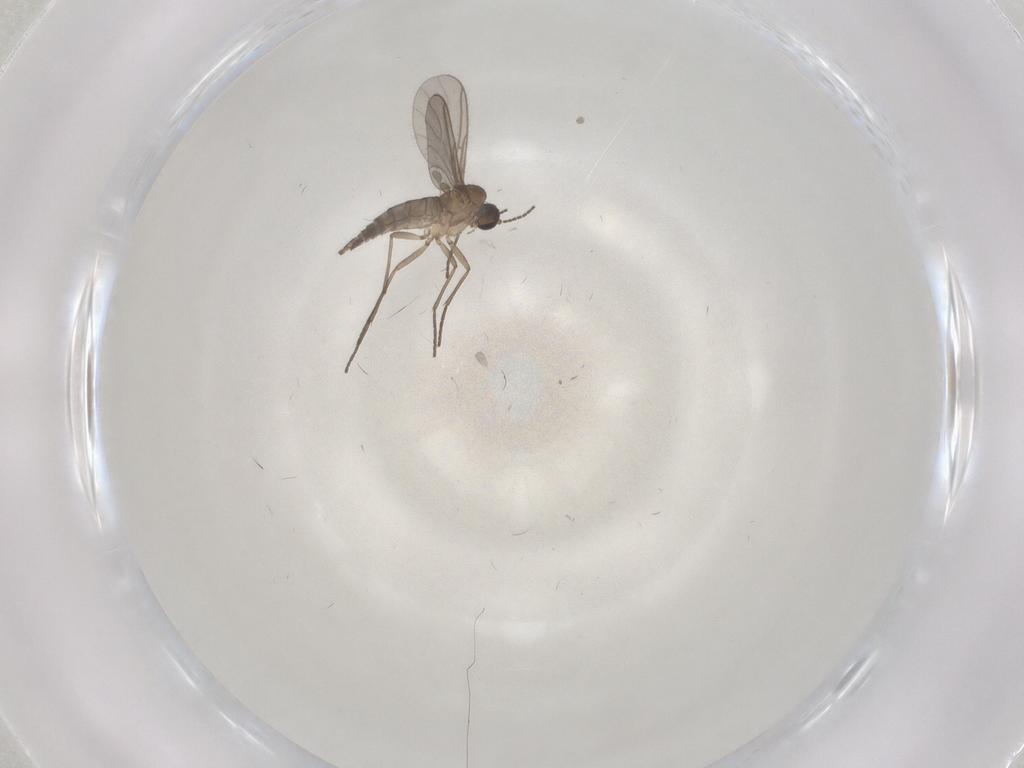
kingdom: Animalia
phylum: Arthropoda
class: Insecta
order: Diptera
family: Sciaridae
